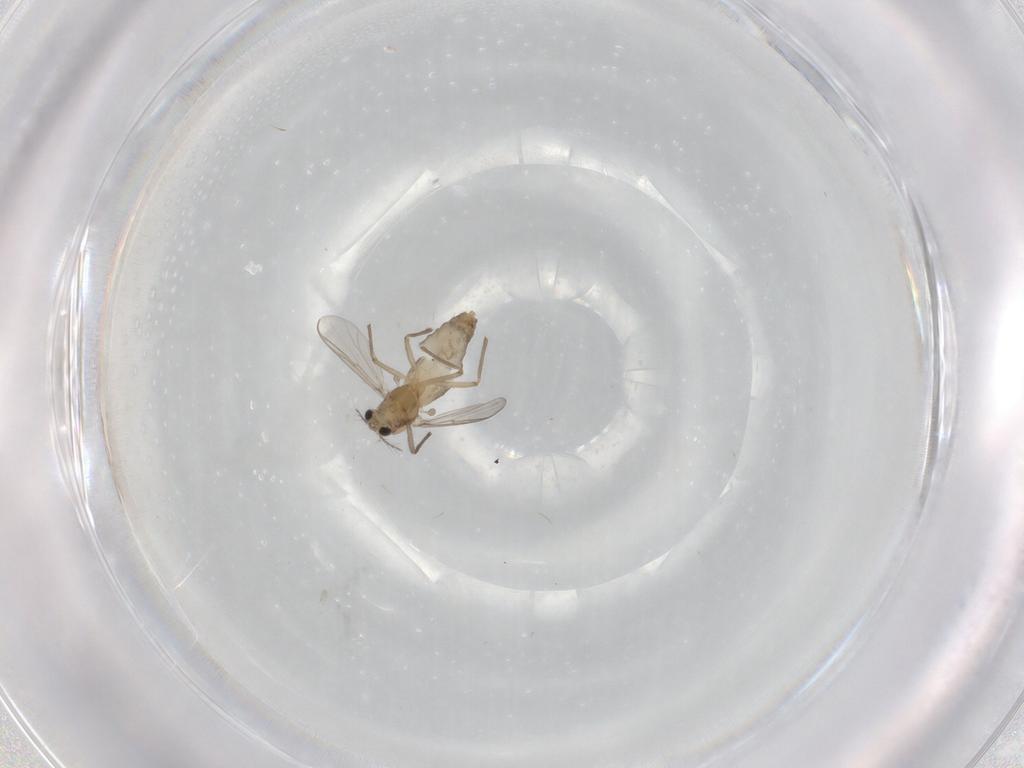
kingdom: Animalia
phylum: Arthropoda
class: Insecta
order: Diptera
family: Chironomidae
